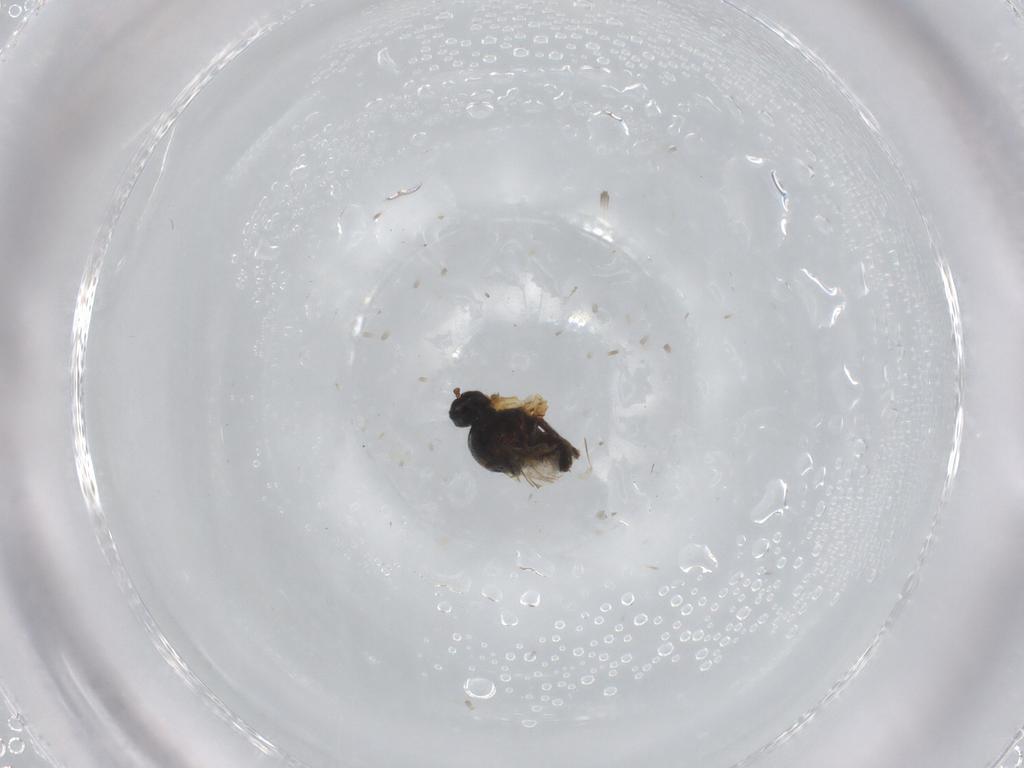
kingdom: Animalia
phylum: Arthropoda
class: Insecta
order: Diptera
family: Hybotidae
